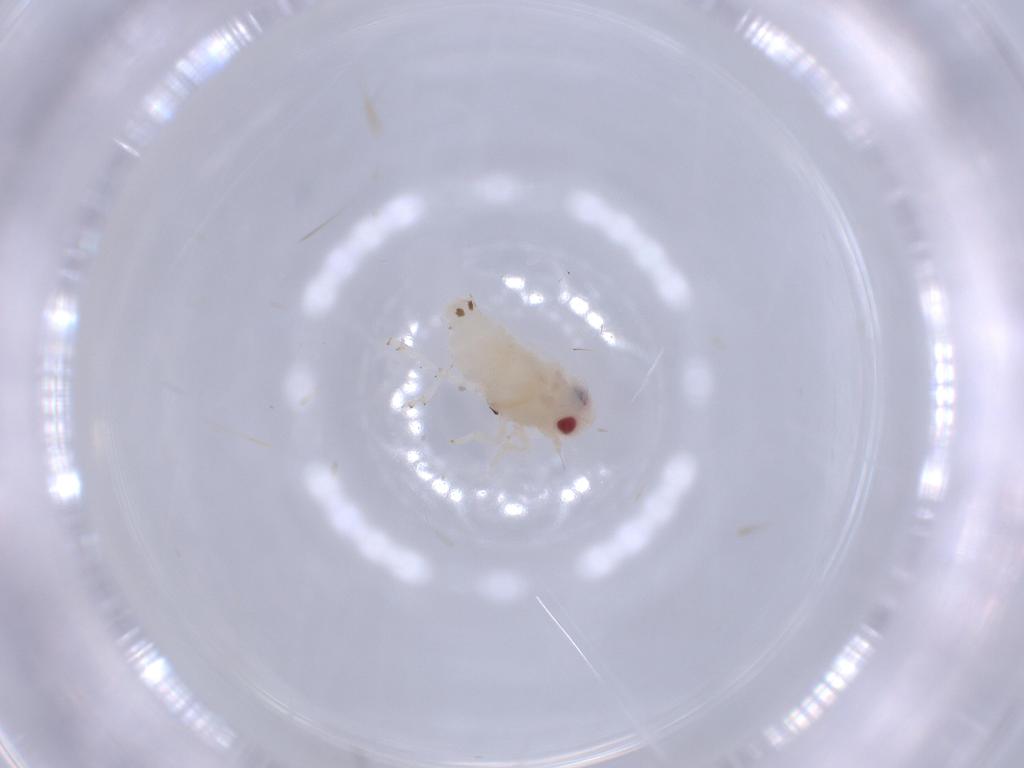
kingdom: Animalia
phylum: Arthropoda
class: Insecta
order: Hemiptera
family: Nogodinidae
